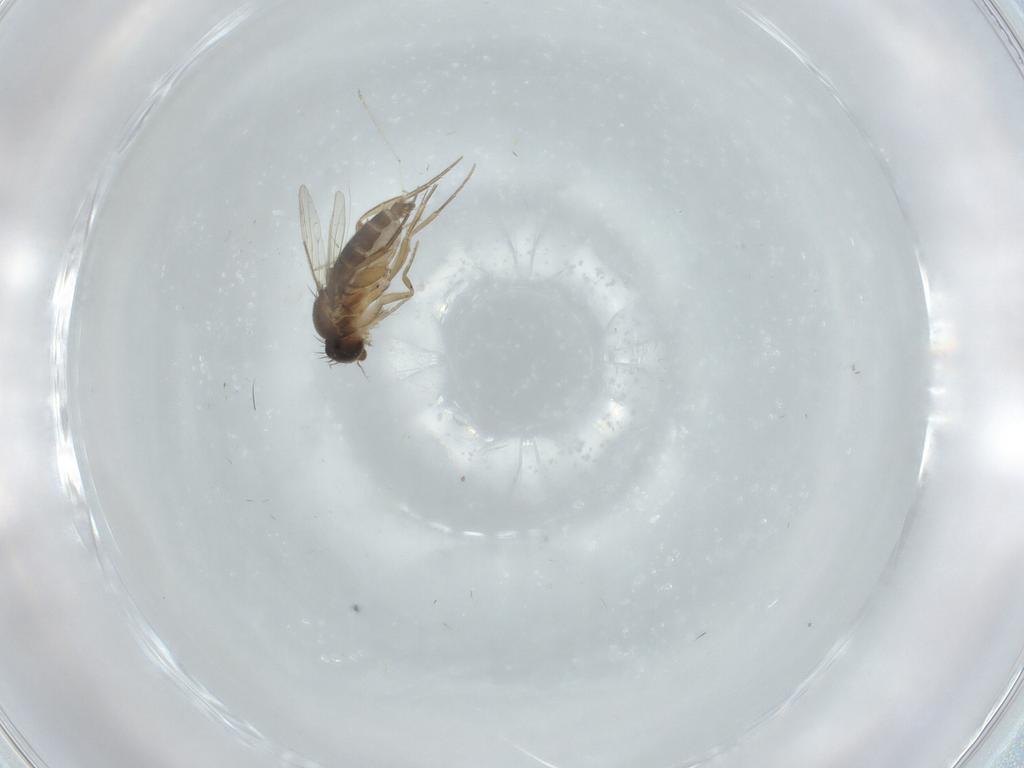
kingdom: Animalia
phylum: Arthropoda
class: Insecta
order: Diptera
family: Phoridae
